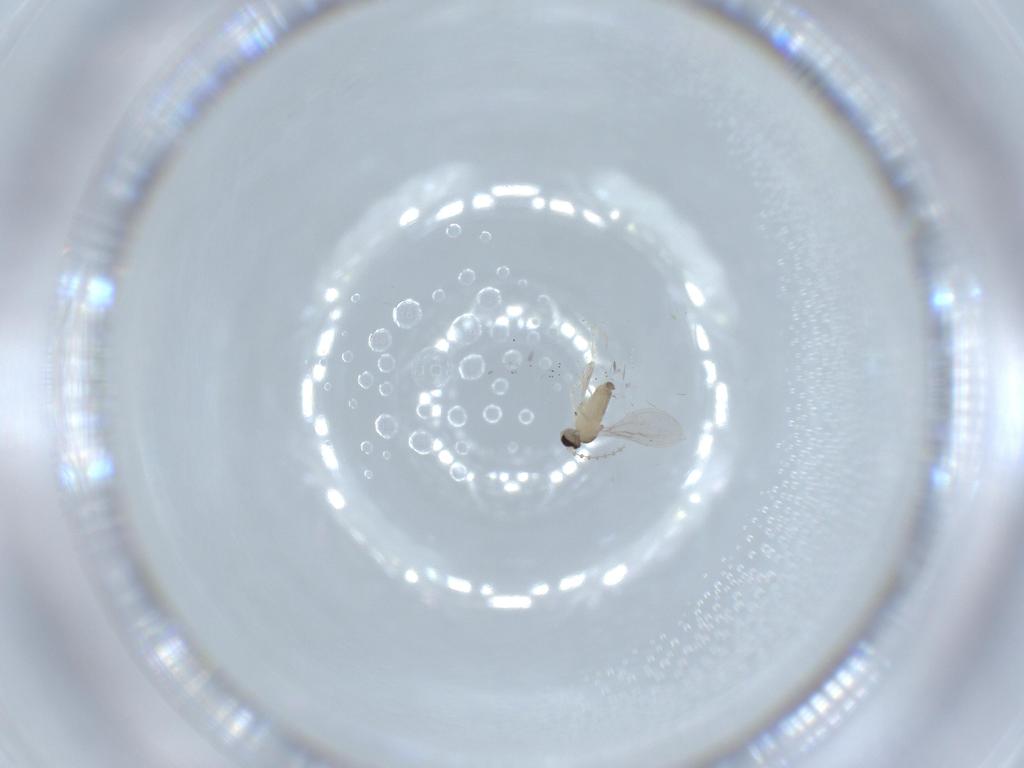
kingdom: Animalia
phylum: Arthropoda
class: Insecta
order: Diptera
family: Cecidomyiidae
